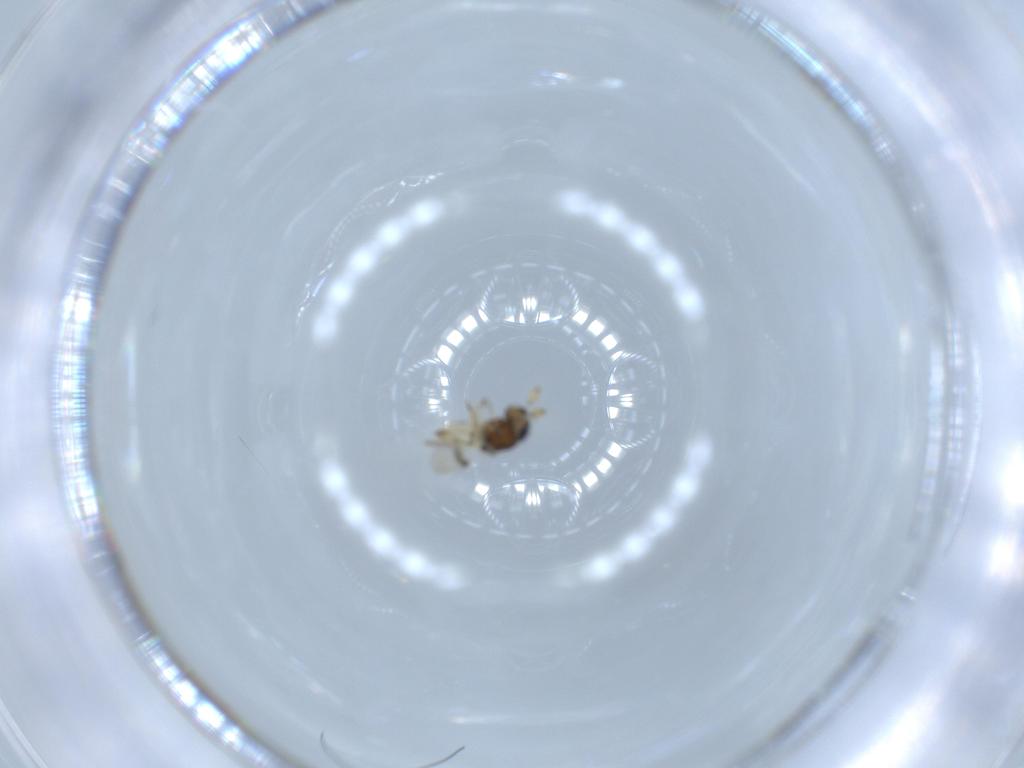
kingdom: Animalia
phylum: Arthropoda
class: Insecta
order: Hymenoptera
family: Scelionidae
